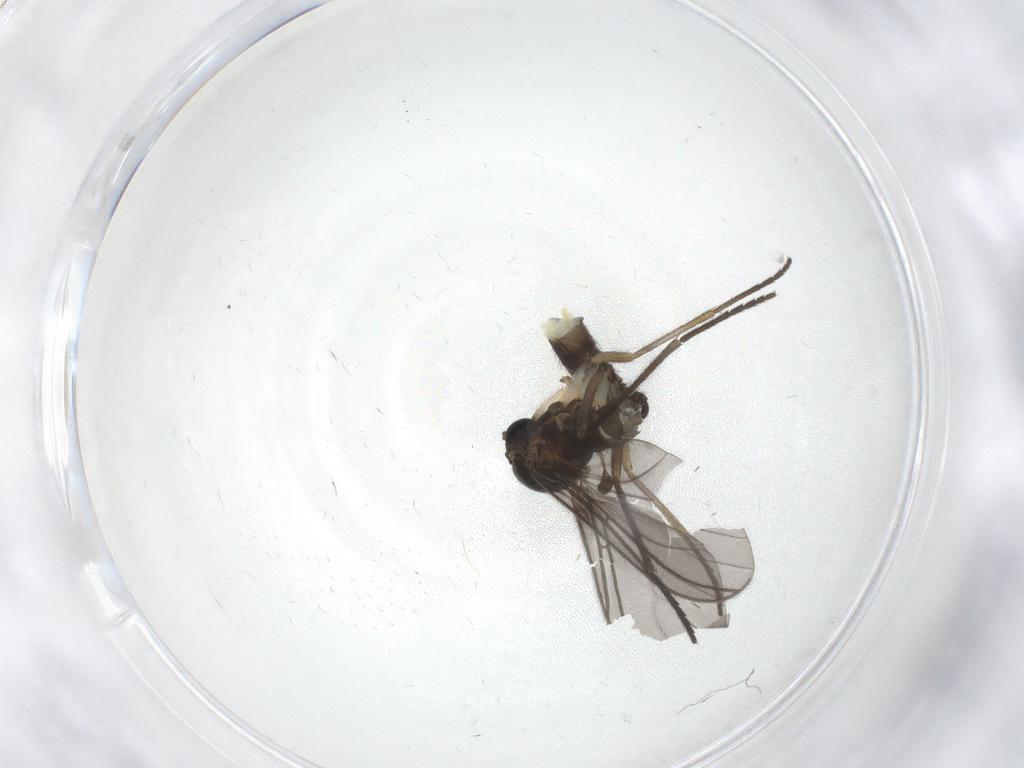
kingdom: Animalia
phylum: Arthropoda
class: Insecta
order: Diptera
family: Sciaridae
